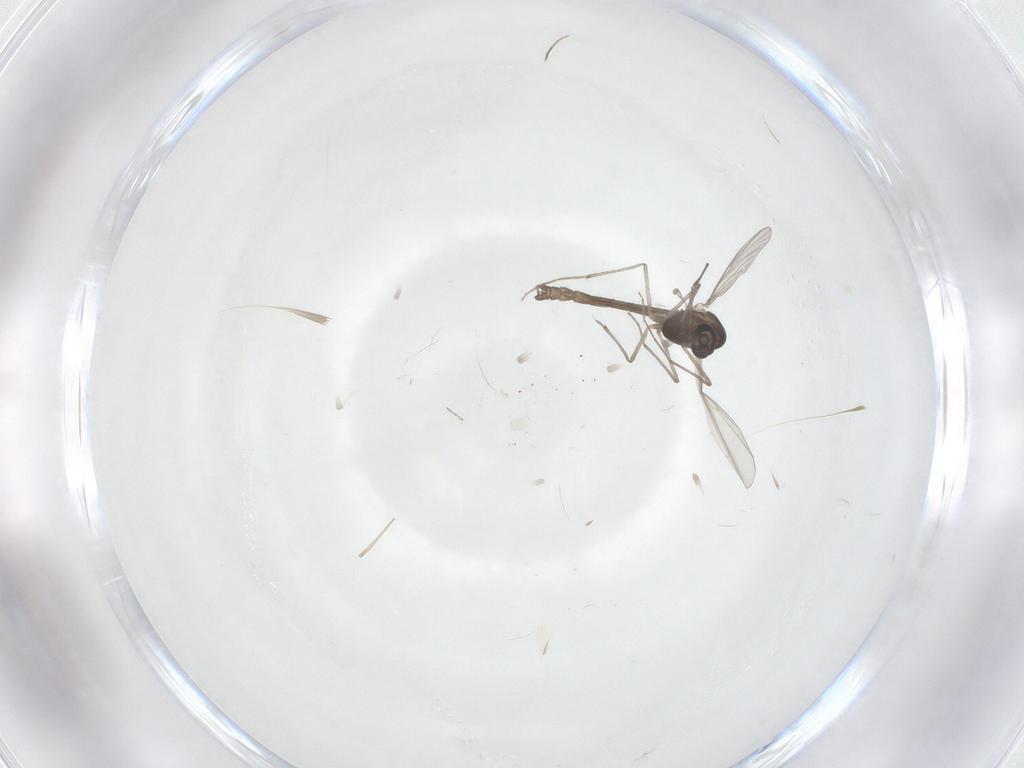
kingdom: Animalia
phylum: Arthropoda
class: Insecta
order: Diptera
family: Chironomidae
